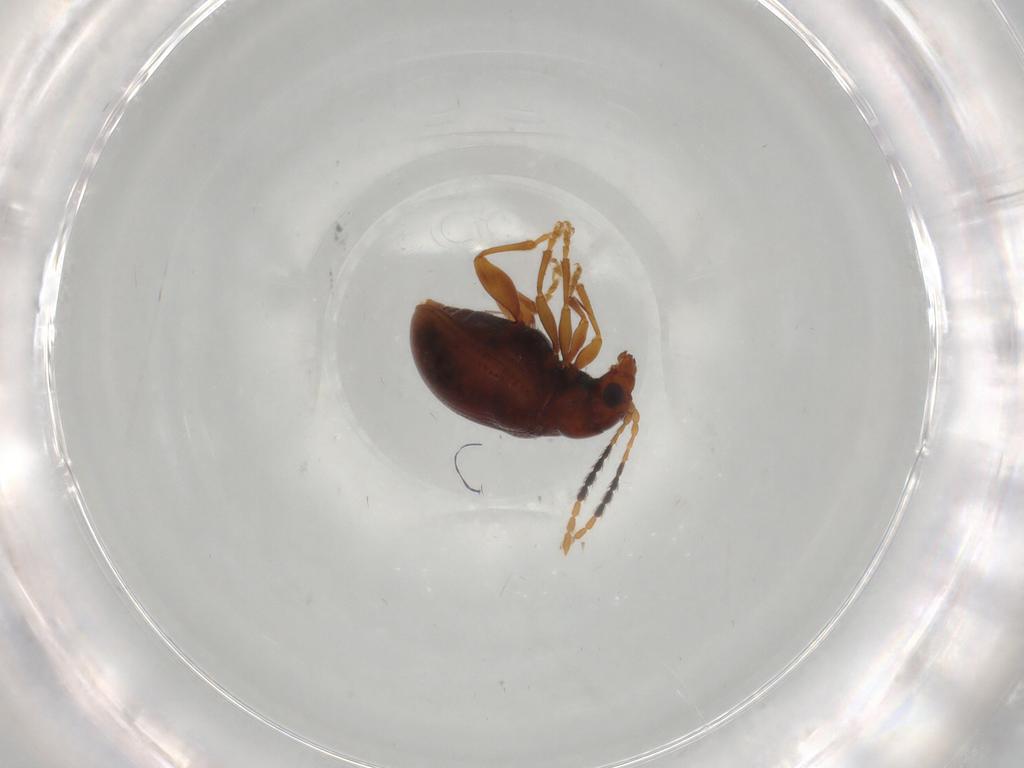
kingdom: Animalia
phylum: Arthropoda
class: Insecta
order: Coleoptera
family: Chrysomelidae
